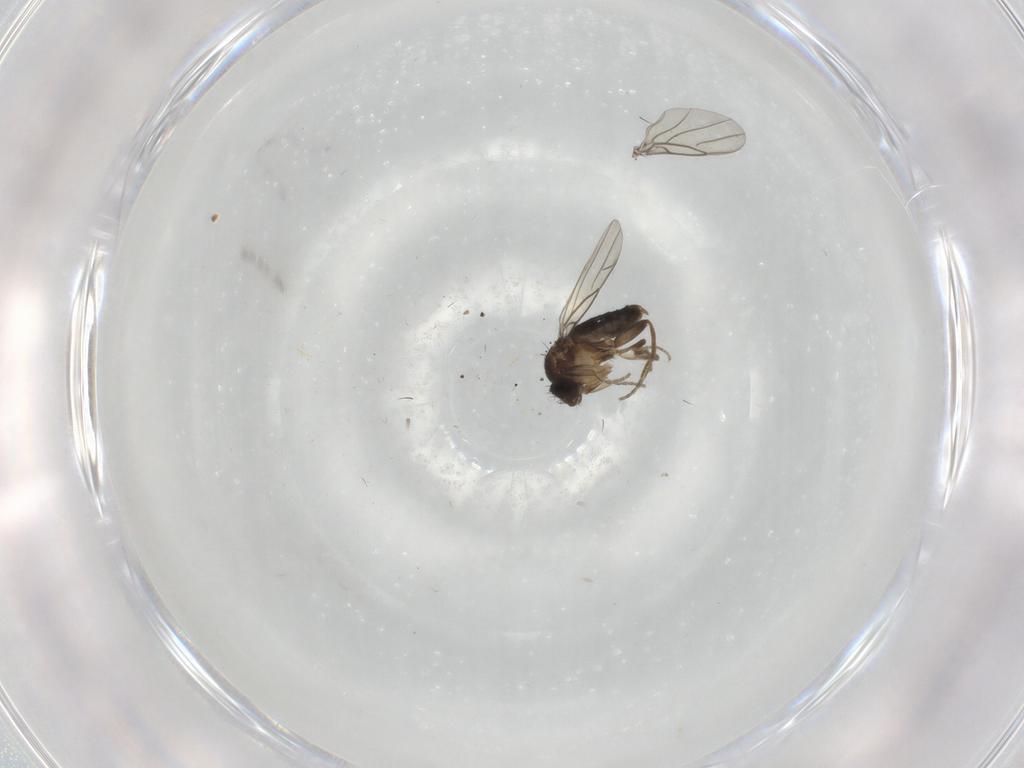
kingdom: Animalia
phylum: Arthropoda
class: Insecta
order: Diptera
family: Phoridae
